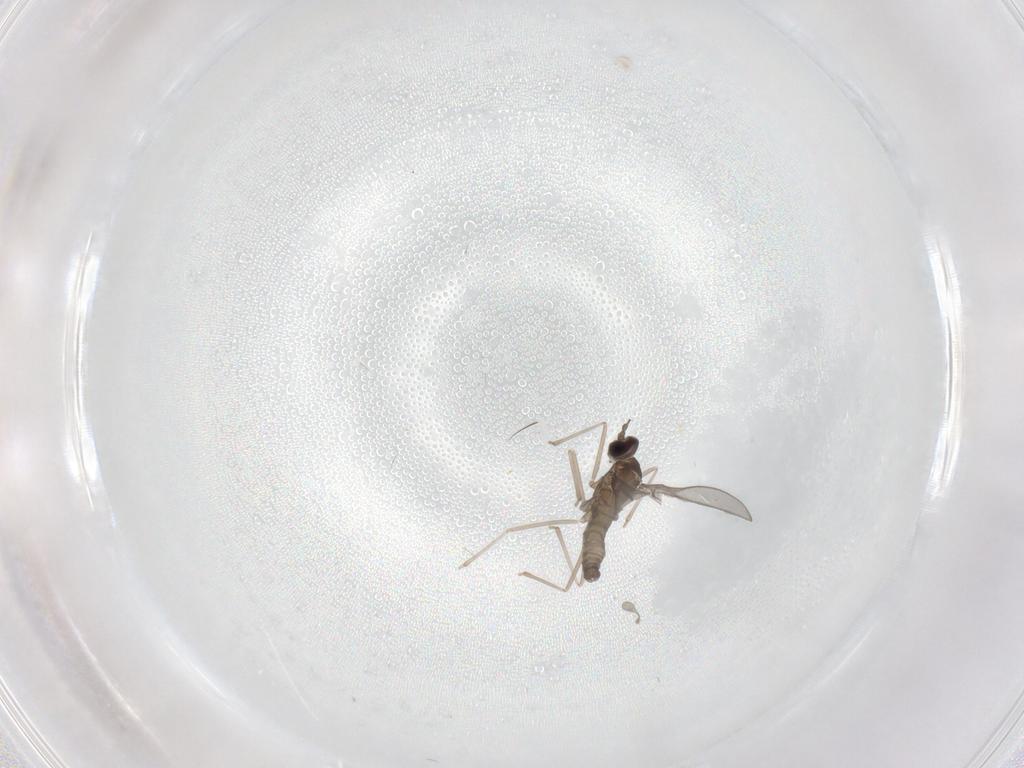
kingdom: Animalia
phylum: Arthropoda
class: Insecta
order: Diptera
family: Cecidomyiidae
